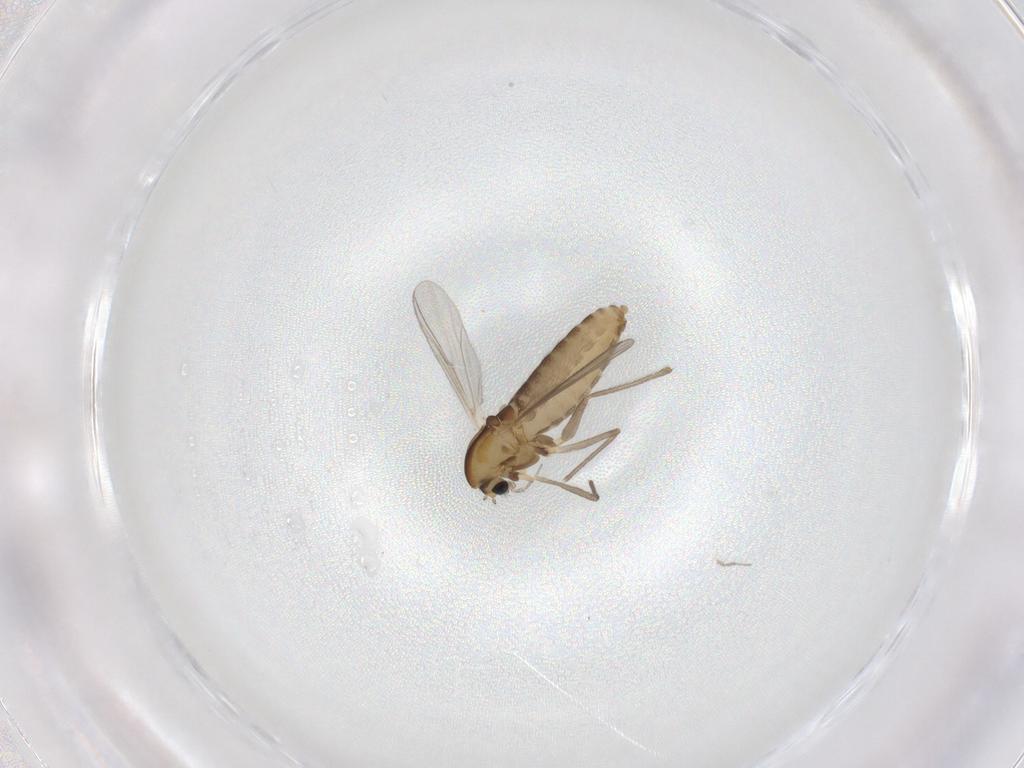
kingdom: Animalia
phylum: Arthropoda
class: Insecta
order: Diptera
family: Chironomidae
